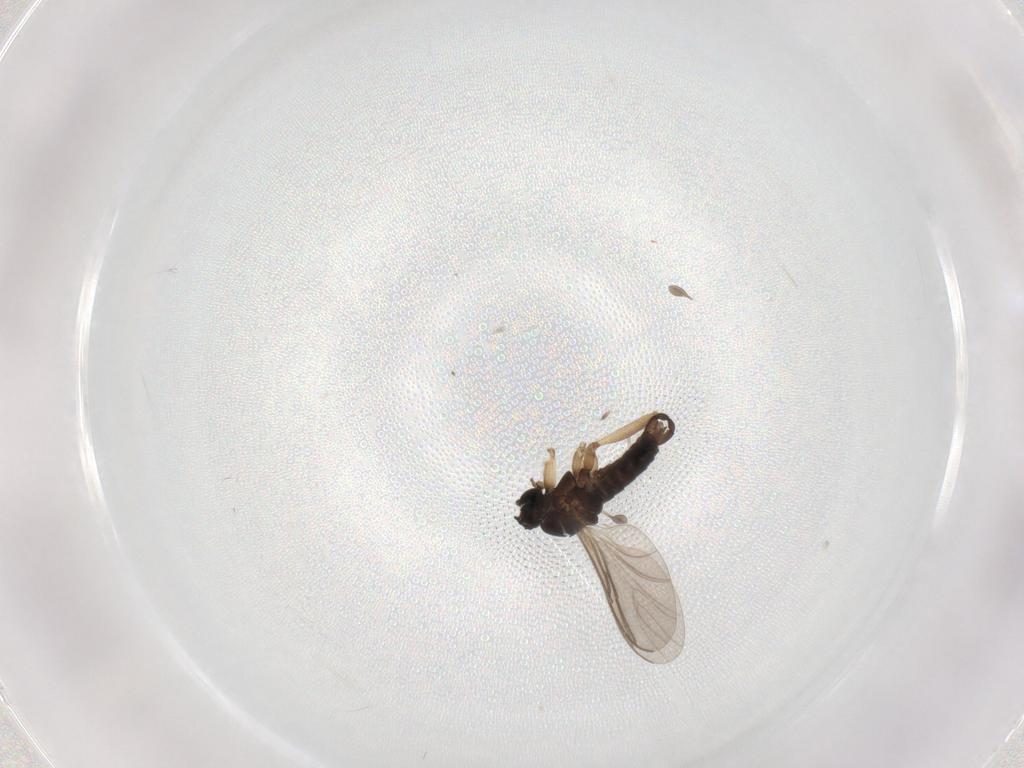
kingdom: Animalia
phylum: Arthropoda
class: Insecta
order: Diptera
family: Sciaridae
